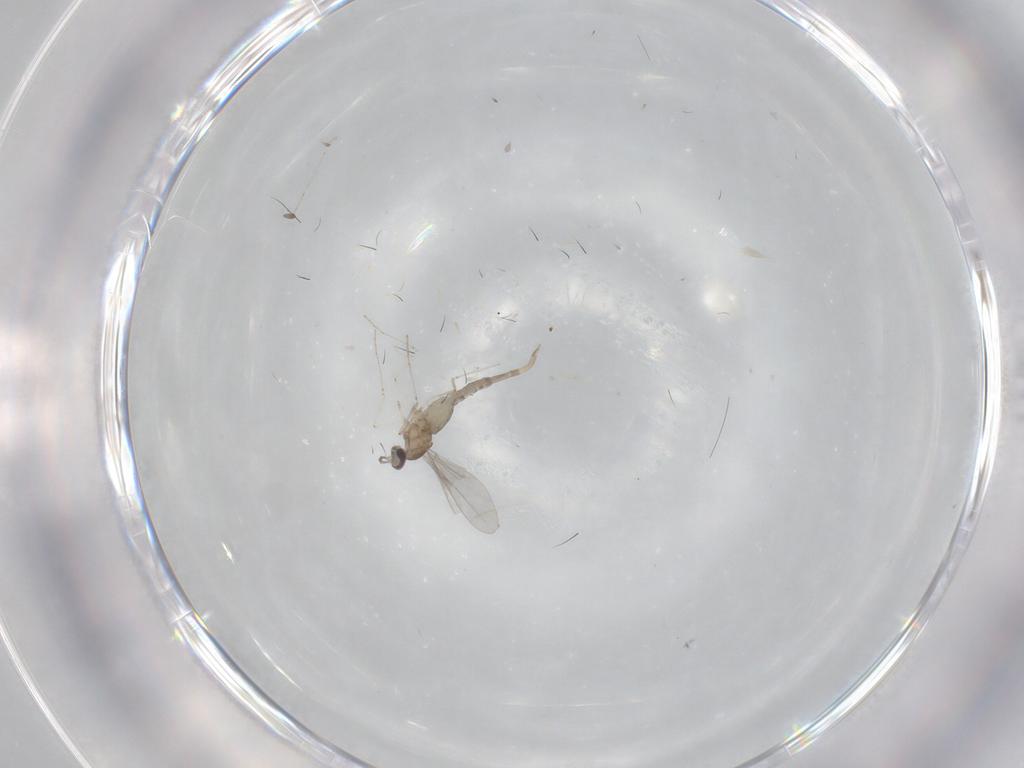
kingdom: Animalia
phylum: Arthropoda
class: Insecta
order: Diptera
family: Cecidomyiidae
